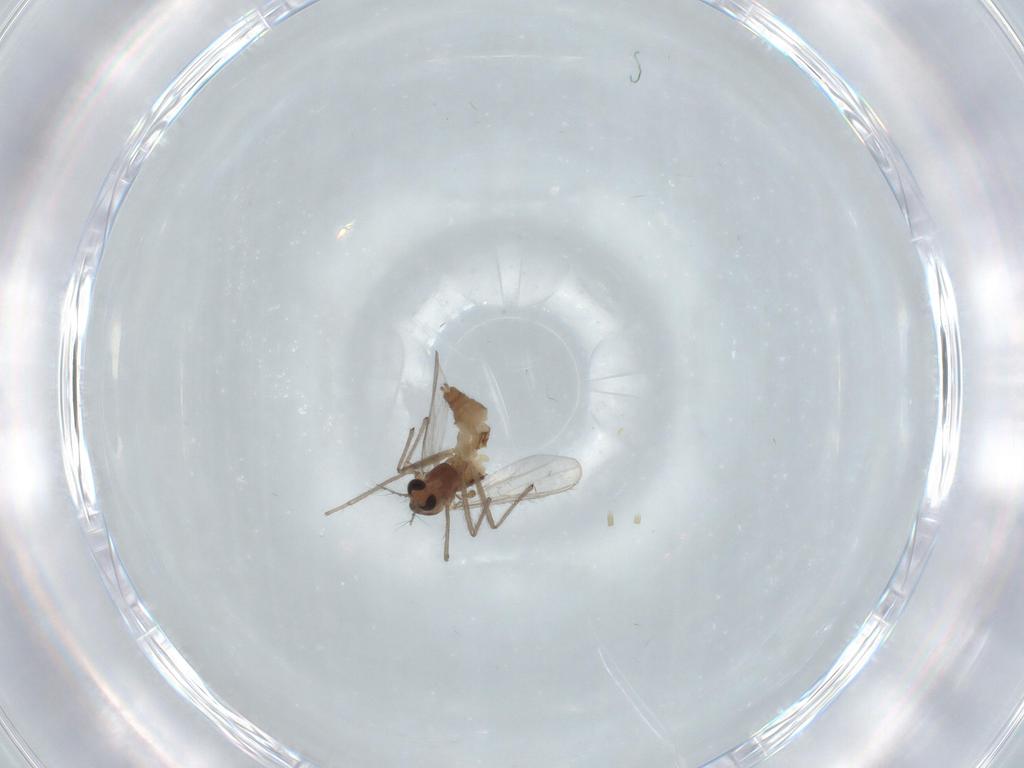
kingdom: Animalia
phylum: Arthropoda
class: Insecta
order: Diptera
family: Chironomidae
